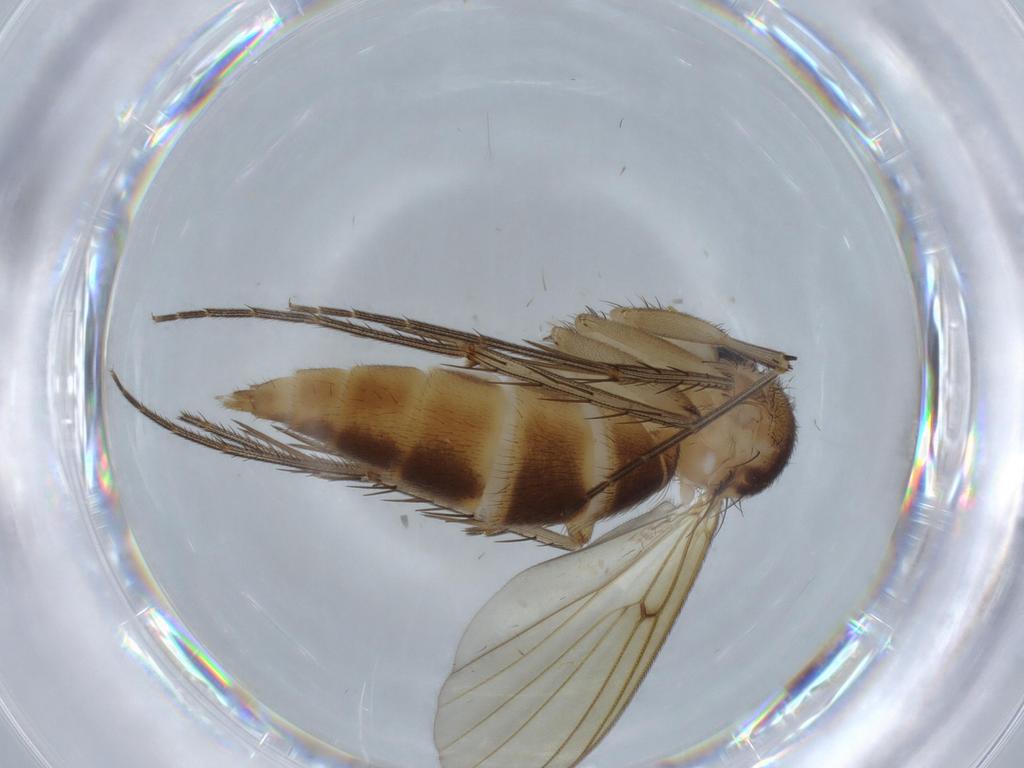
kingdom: Animalia
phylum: Arthropoda
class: Insecta
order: Diptera
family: Mycetophilidae
